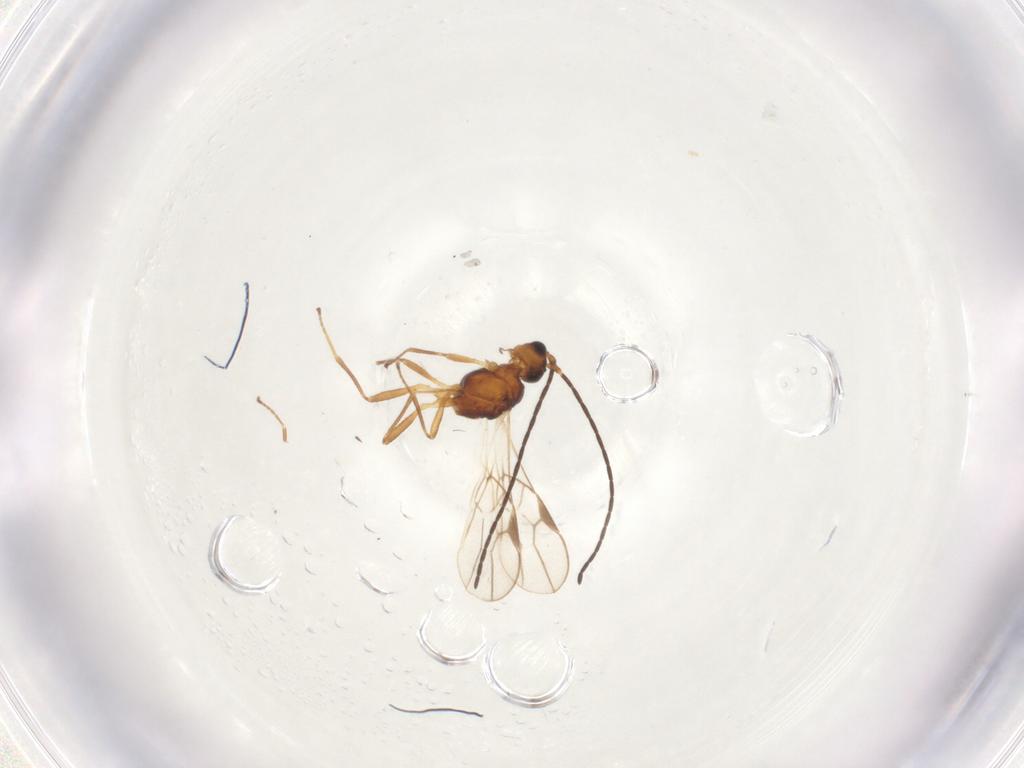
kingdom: Animalia
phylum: Arthropoda
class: Insecta
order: Hymenoptera
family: Braconidae
